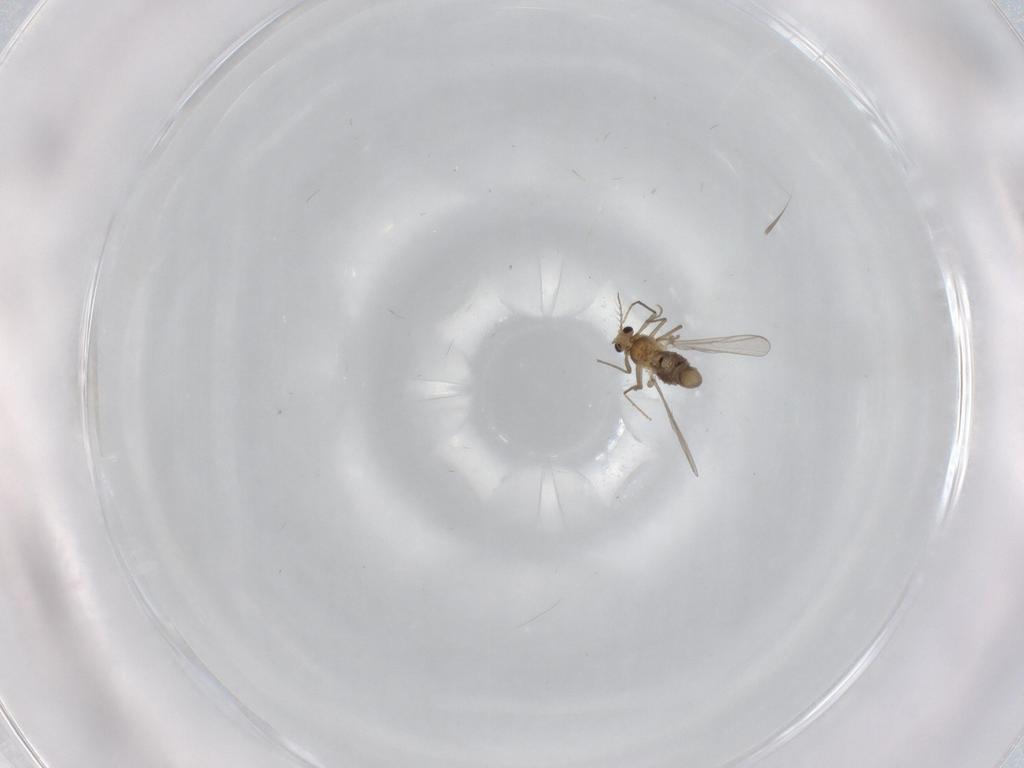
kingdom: Animalia
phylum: Arthropoda
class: Insecta
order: Diptera
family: Chironomidae
